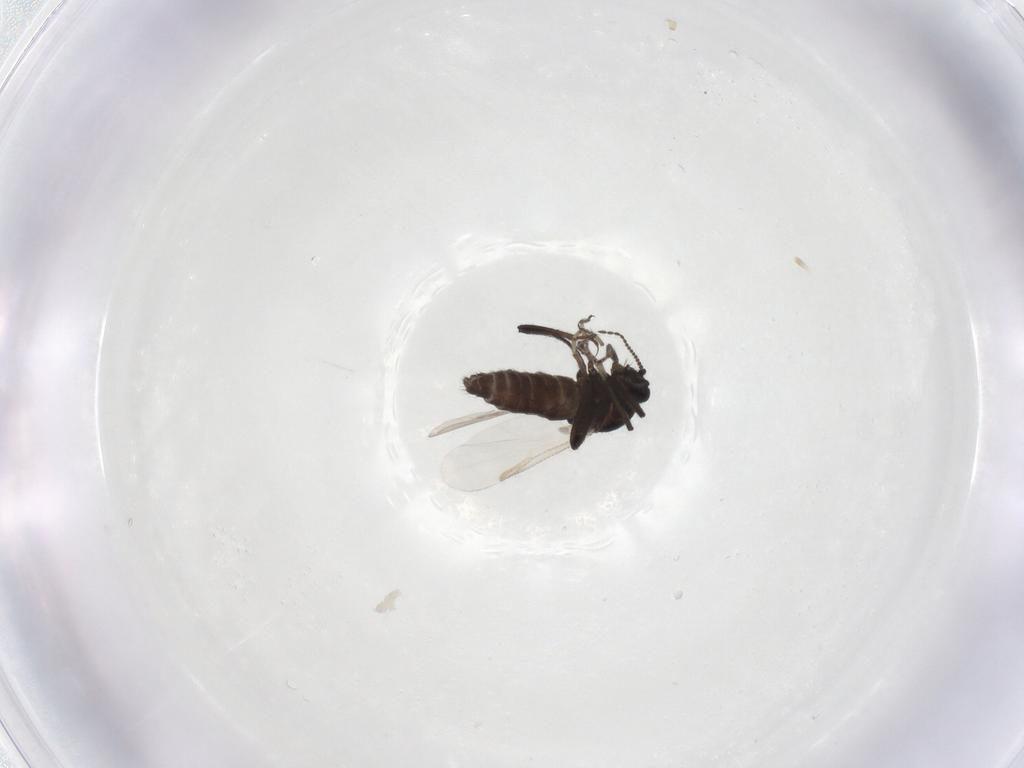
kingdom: Animalia
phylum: Arthropoda
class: Insecta
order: Diptera
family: Ceratopogonidae
